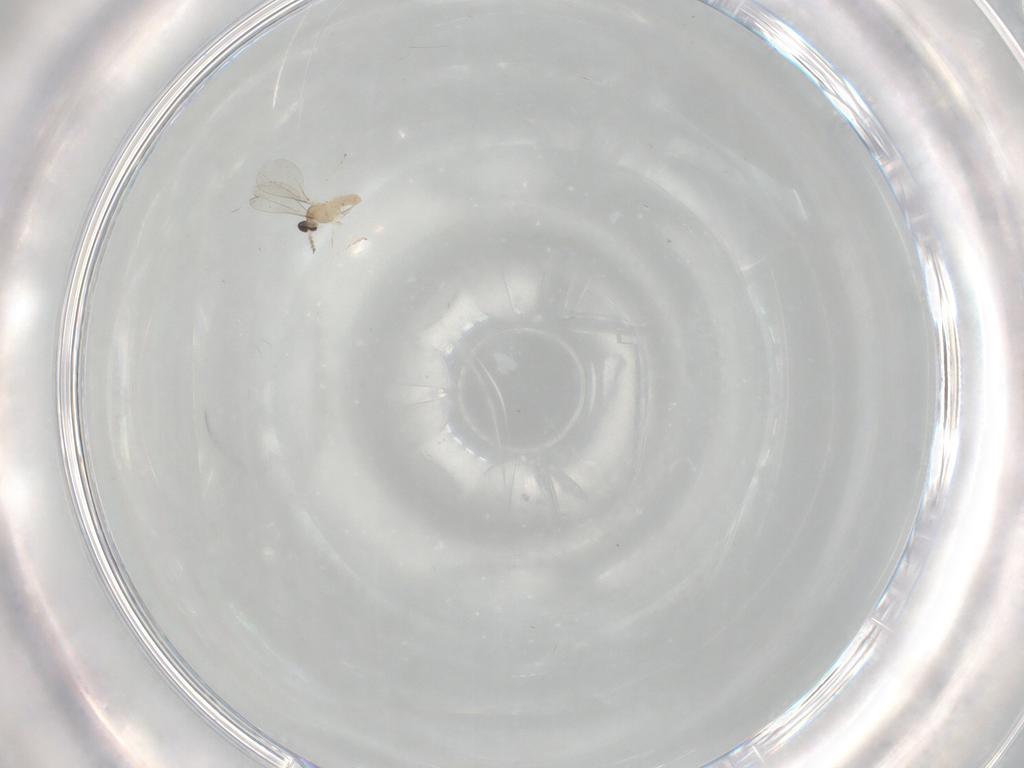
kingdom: Animalia
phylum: Arthropoda
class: Insecta
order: Diptera
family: Cecidomyiidae
